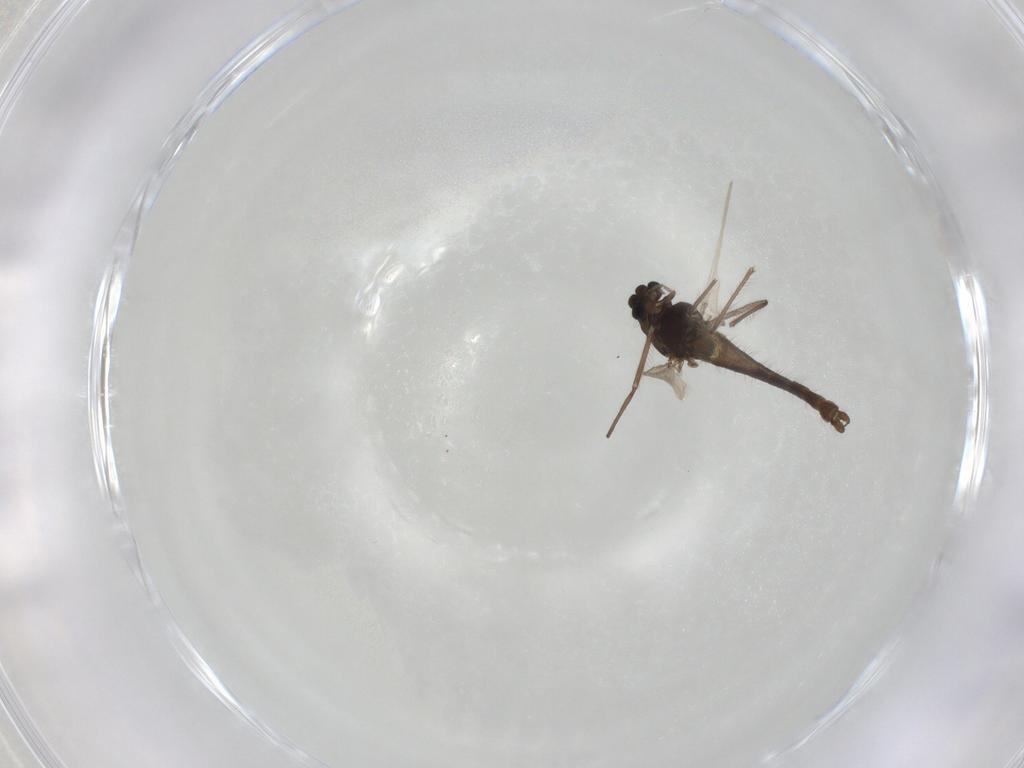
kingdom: Animalia
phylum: Arthropoda
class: Insecta
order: Diptera
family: Chironomidae
